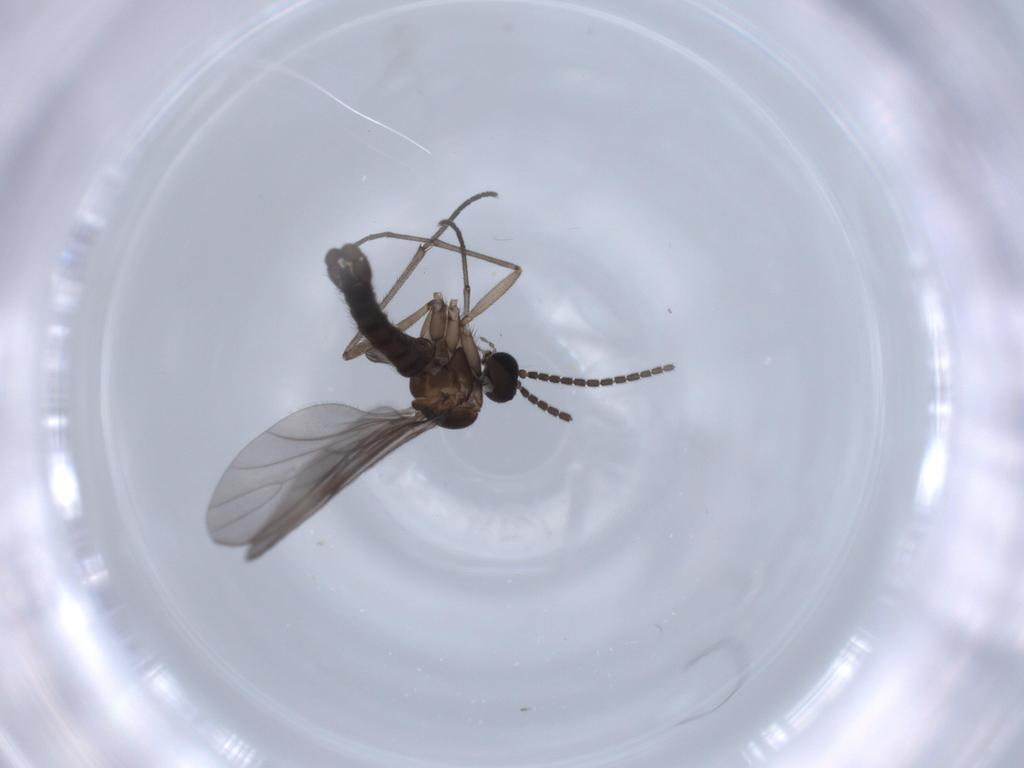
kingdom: Animalia
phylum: Arthropoda
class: Insecta
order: Diptera
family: Sciaridae
